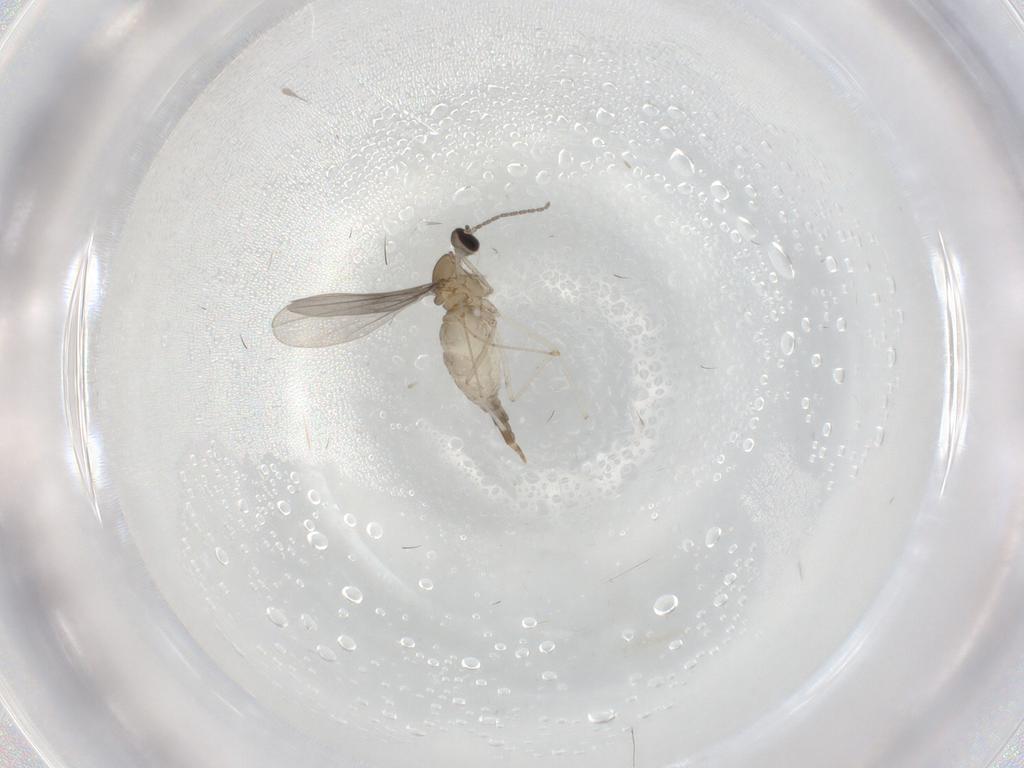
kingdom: Animalia
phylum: Arthropoda
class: Insecta
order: Diptera
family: Cecidomyiidae
